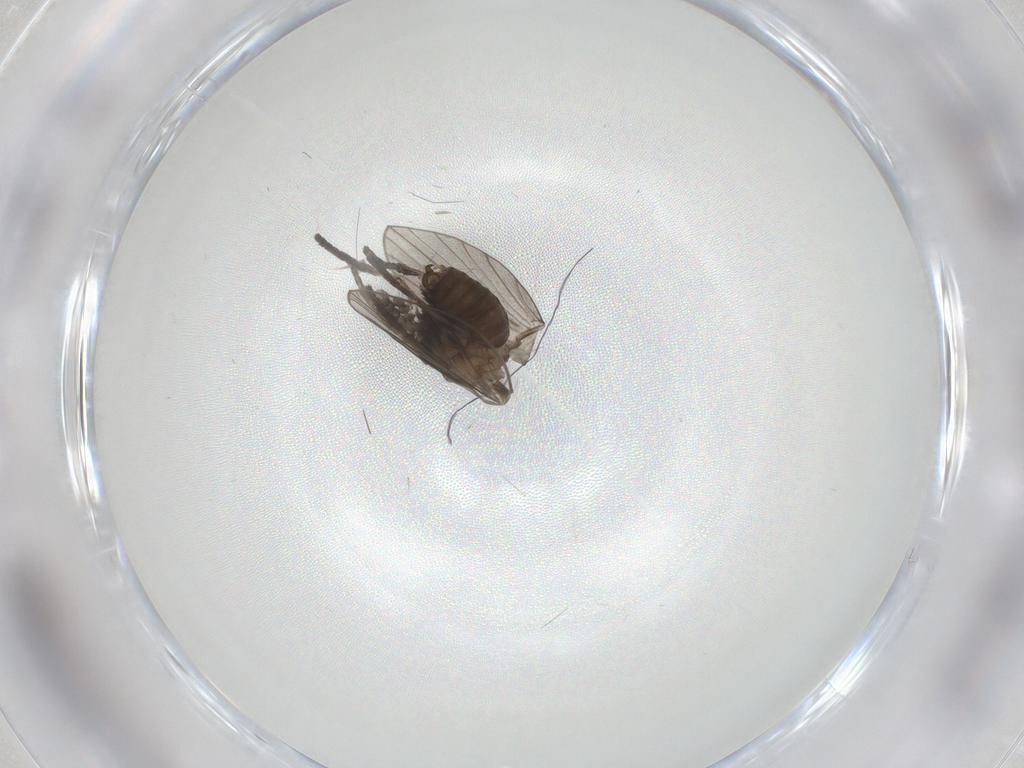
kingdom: Animalia
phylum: Arthropoda
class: Insecta
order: Diptera
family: Psychodidae
